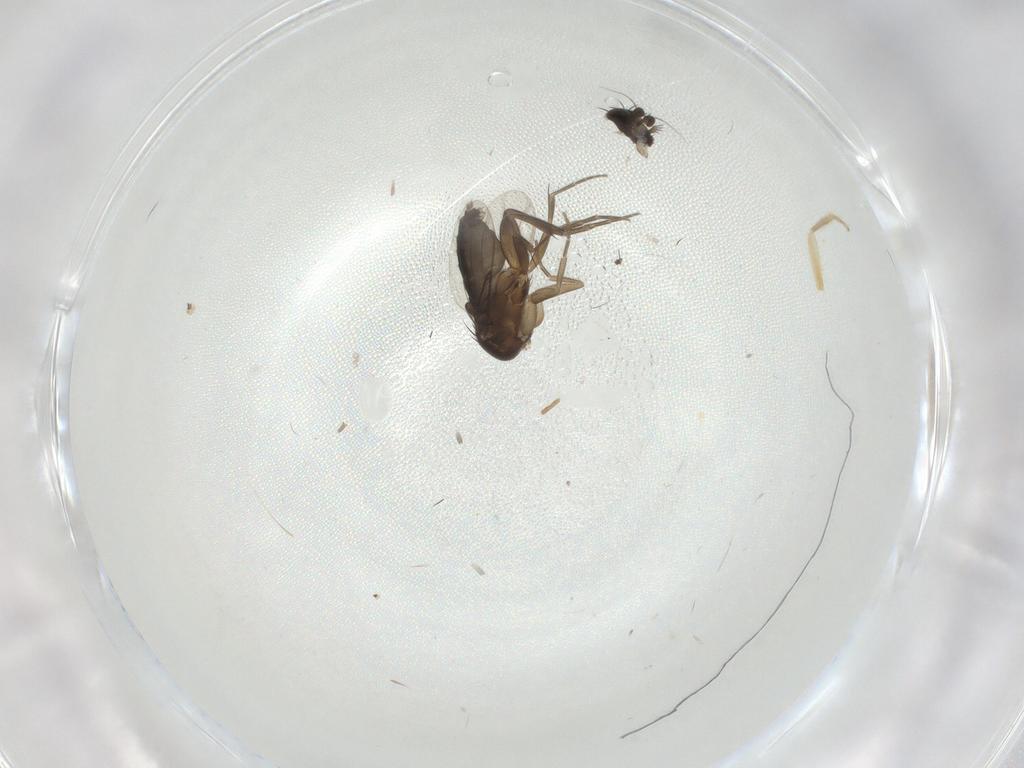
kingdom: Animalia
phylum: Arthropoda
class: Insecta
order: Diptera
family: Phoridae
